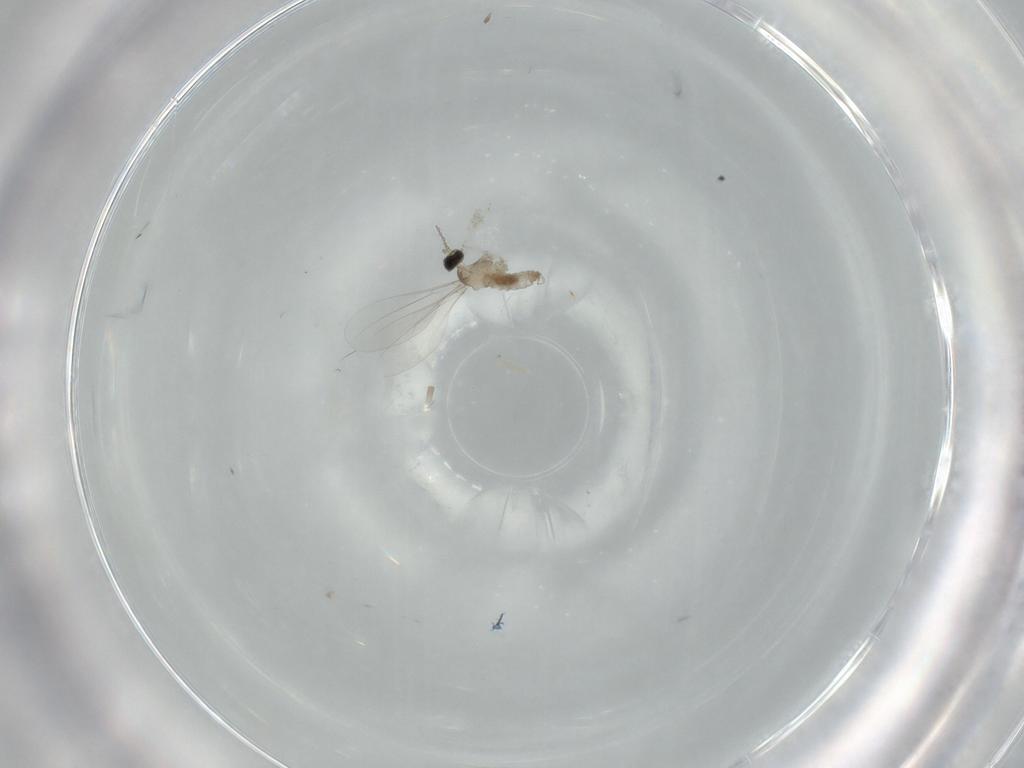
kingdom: Animalia
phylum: Arthropoda
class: Insecta
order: Diptera
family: Cecidomyiidae
